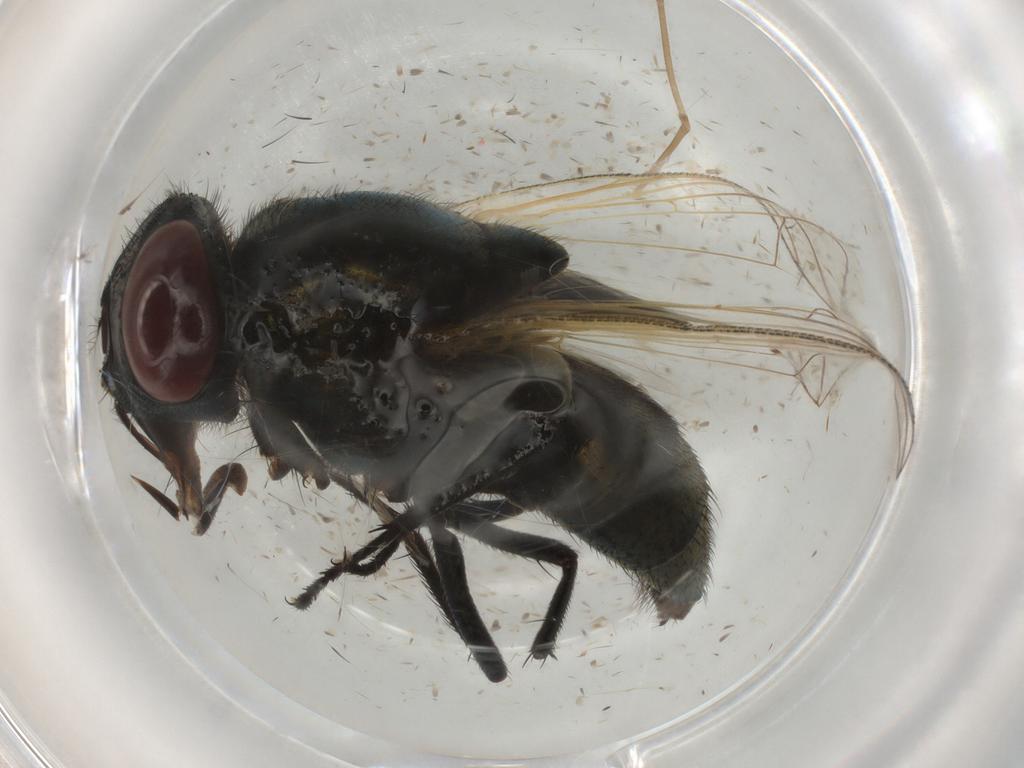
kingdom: Animalia
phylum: Arthropoda
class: Insecta
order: Diptera
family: Muscidae
